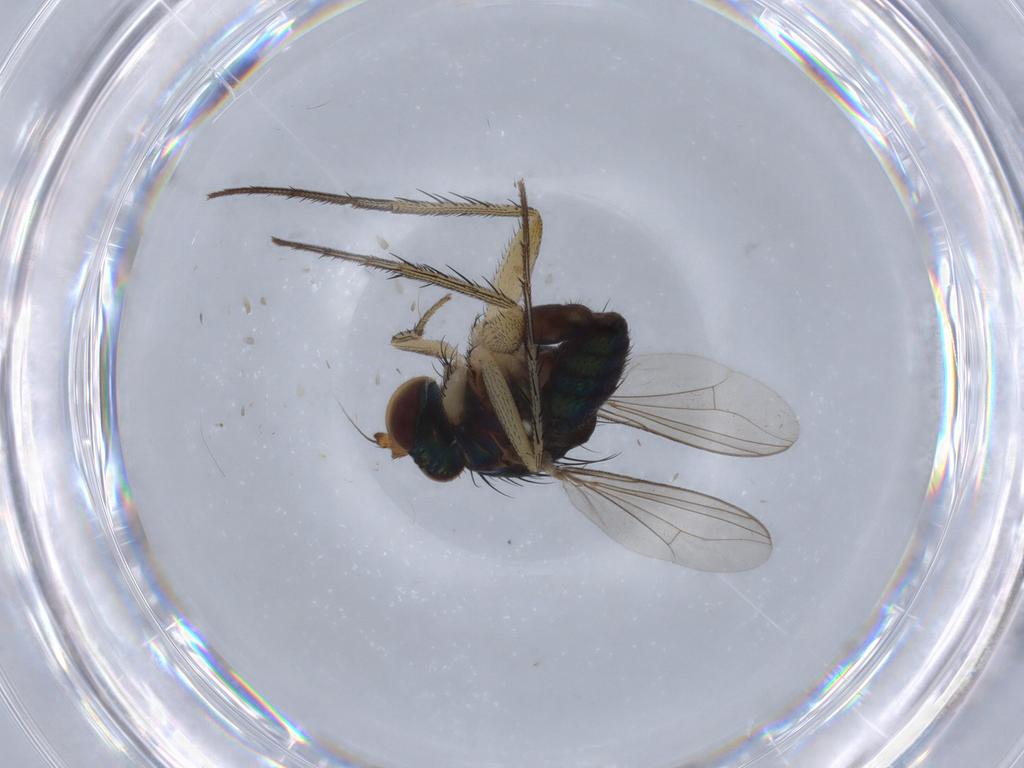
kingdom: Animalia
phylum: Arthropoda
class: Insecta
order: Diptera
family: Dolichopodidae
